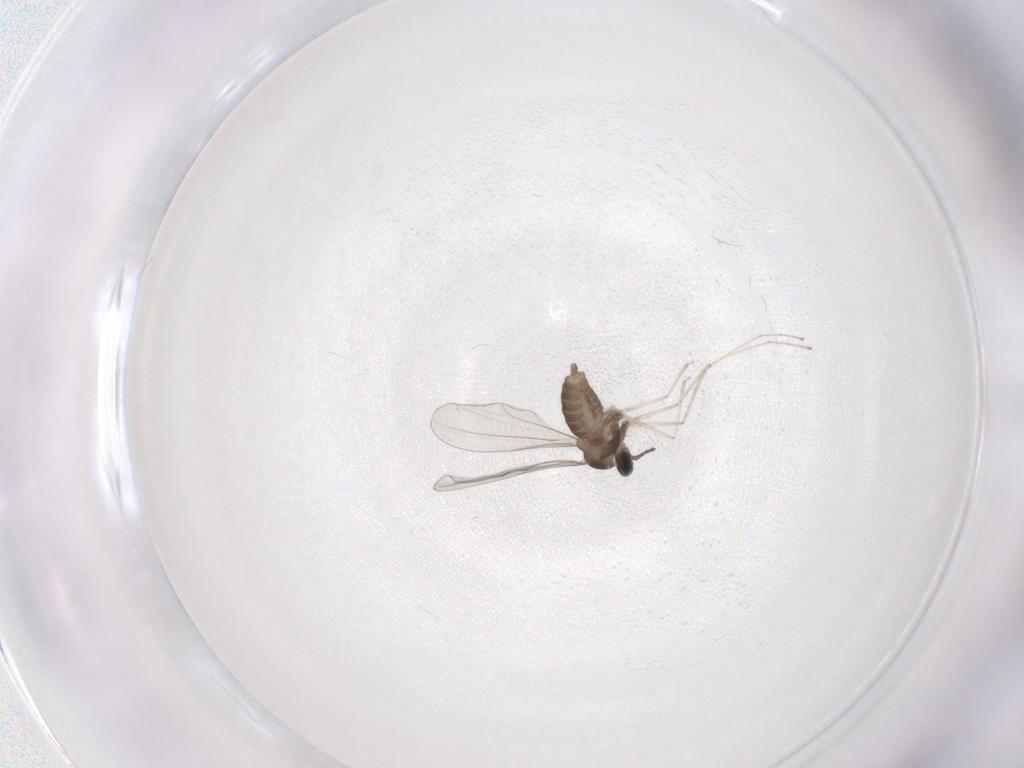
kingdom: Animalia
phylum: Arthropoda
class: Insecta
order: Diptera
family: Cecidomyiidae
